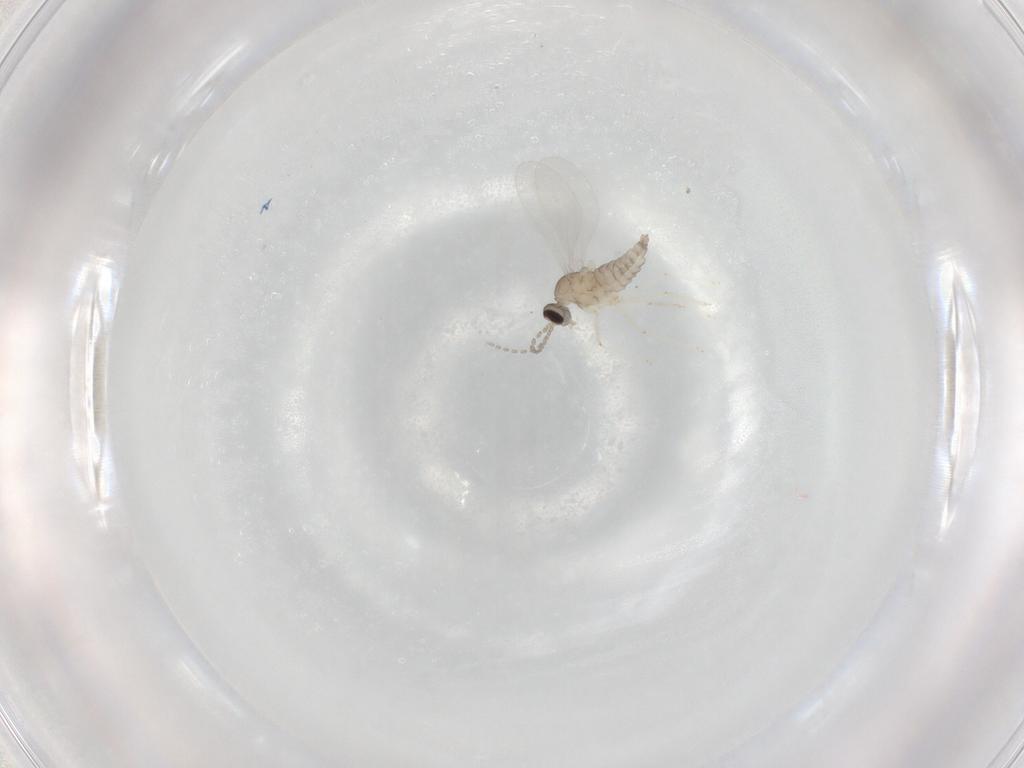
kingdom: Animalia
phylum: Arthropoda
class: Insecta
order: Diptera
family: Cecidomyiidae
